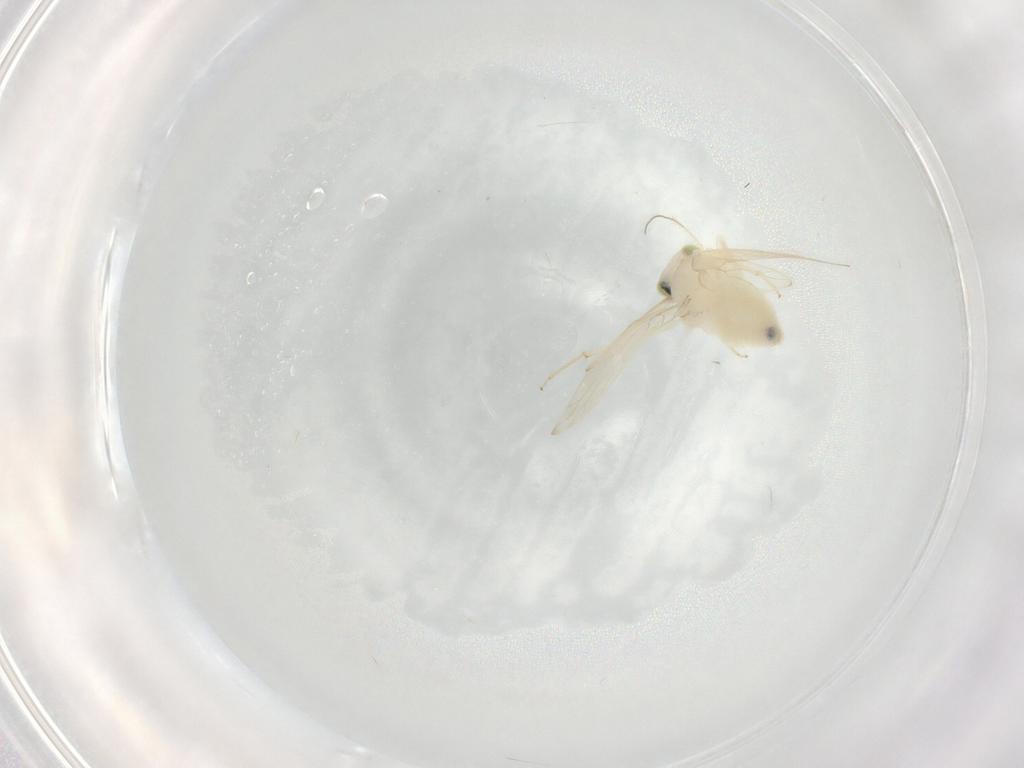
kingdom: Animalia
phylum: Arthropoda
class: Insecta
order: Psocodea
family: Lepidopsocidae
